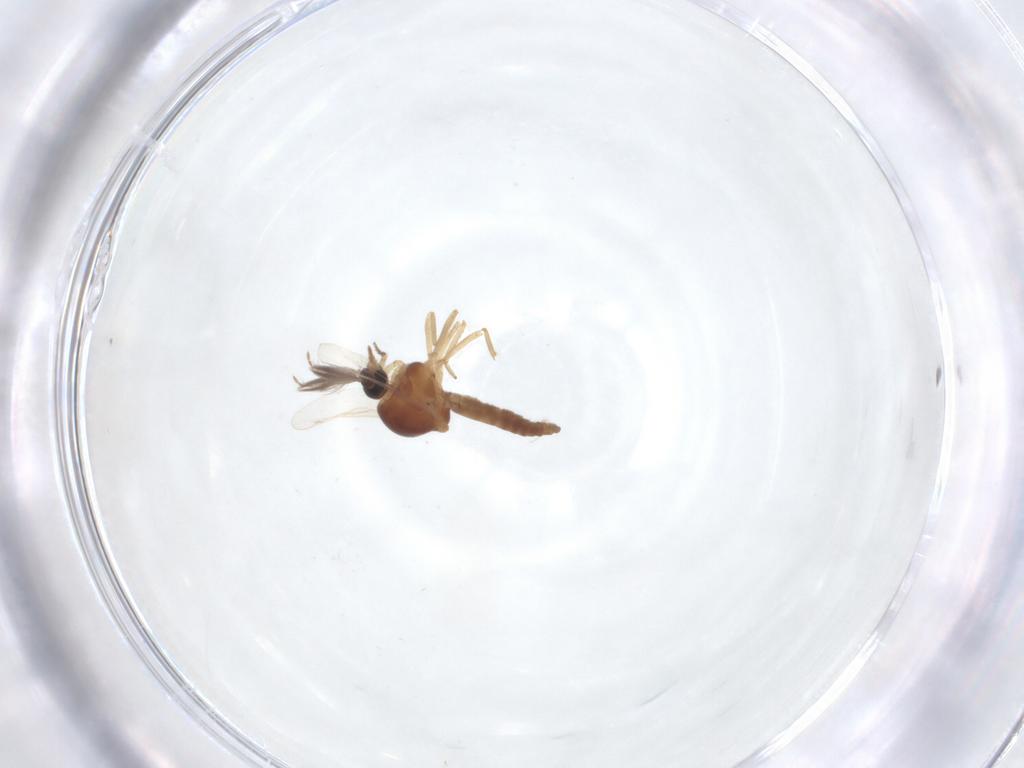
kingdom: Animalia
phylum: Arthropoda
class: Insecta
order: Diptera
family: Ceratopogonidae
